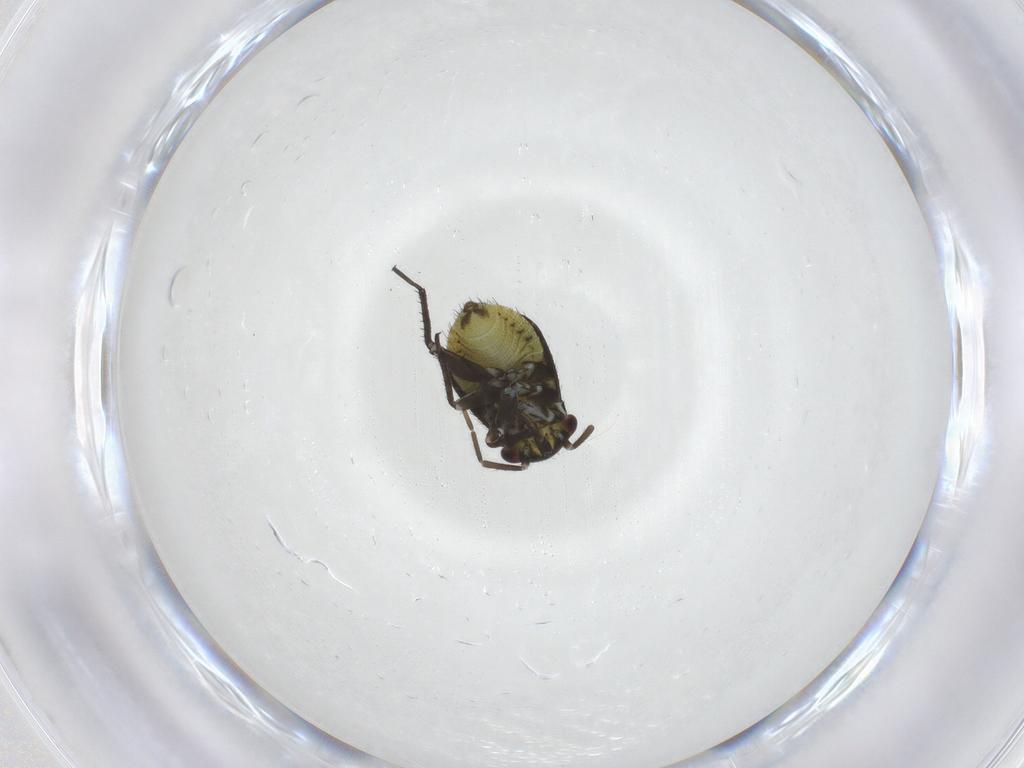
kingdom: Animalia
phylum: Arthropoda
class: Insecta
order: Hemiptera
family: Miridae
